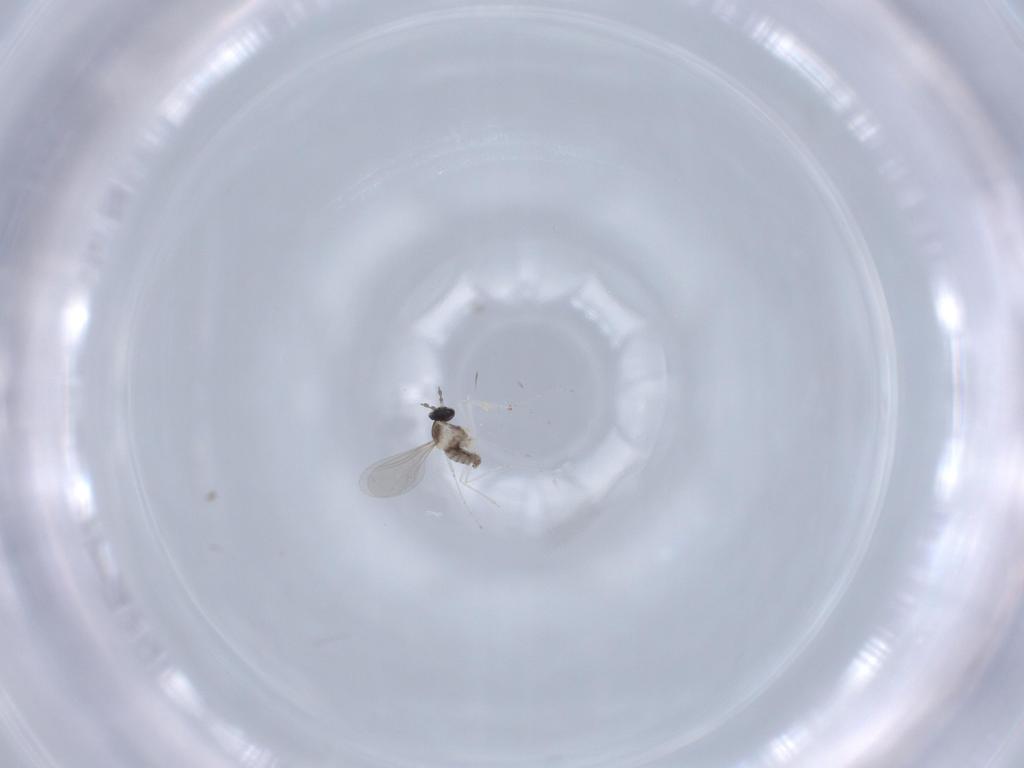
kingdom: Animalia
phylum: Arthropoda
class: Insecta
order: Diptera
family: Cecidomyiidae
